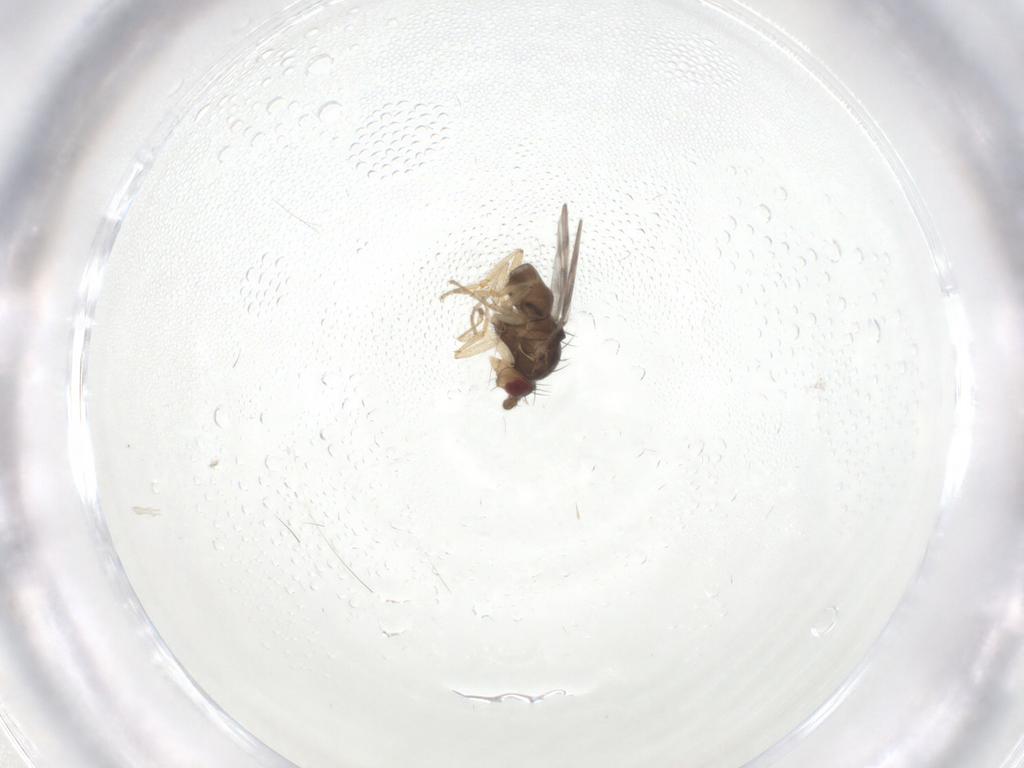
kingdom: Animalia
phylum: Arthropoda
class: Insecta
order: Diptera
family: Sphaeroceridae
